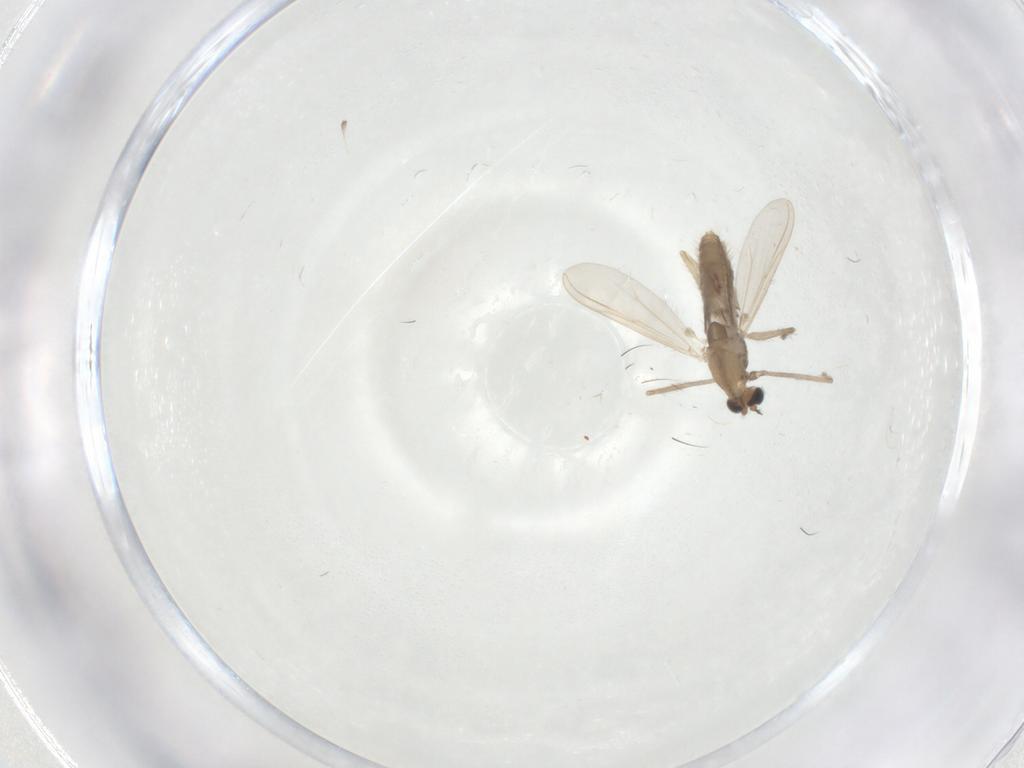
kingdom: Animalia
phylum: Arthropoda
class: Insecta
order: Diptera
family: Chironomidae
